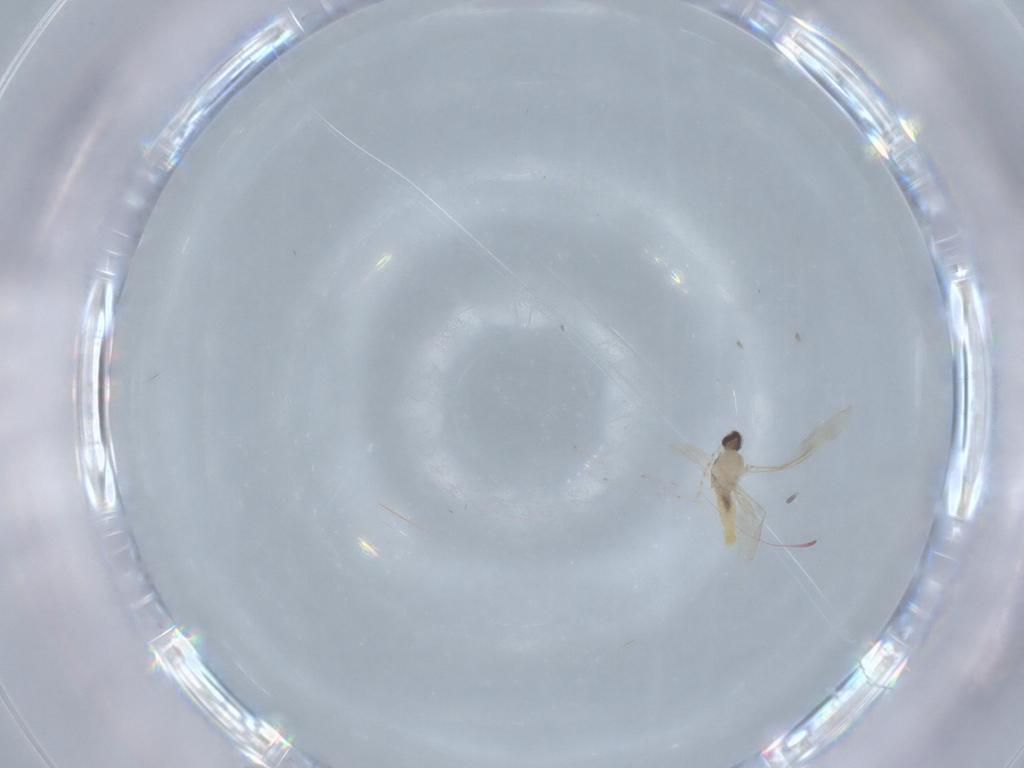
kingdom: Animalia
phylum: Arthropoda
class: Insecta
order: Diptera
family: Cecidomyiidae
